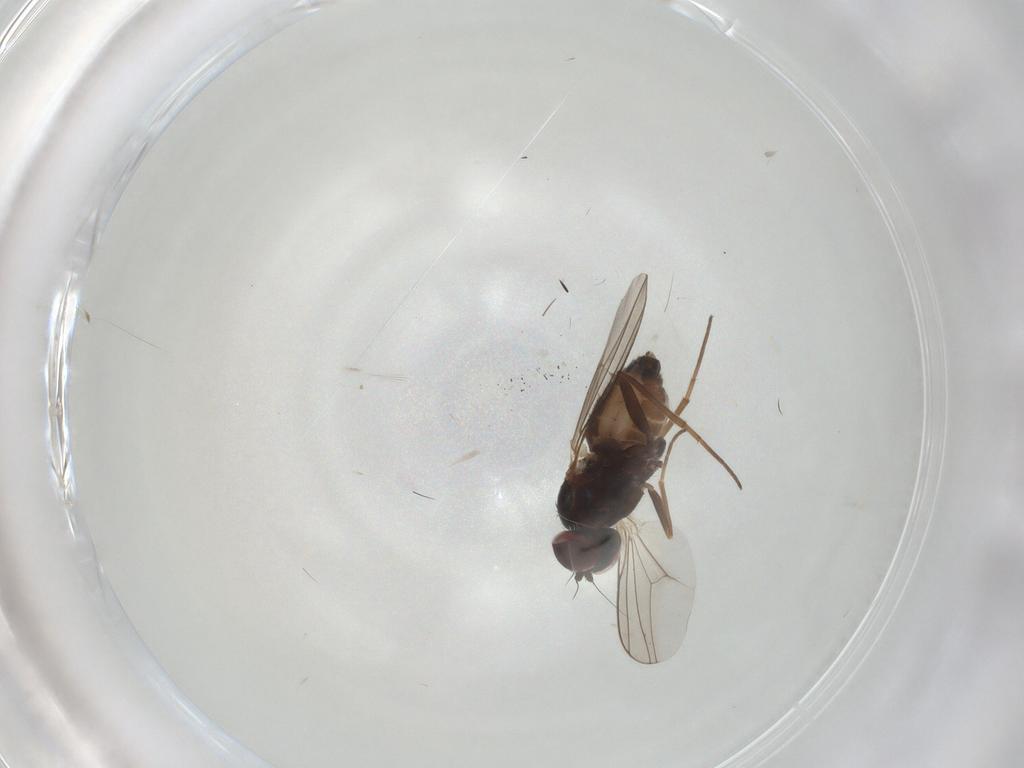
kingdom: Animalia
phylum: Arthropoda
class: Insecta
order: Diptera
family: Dolichopodidae
